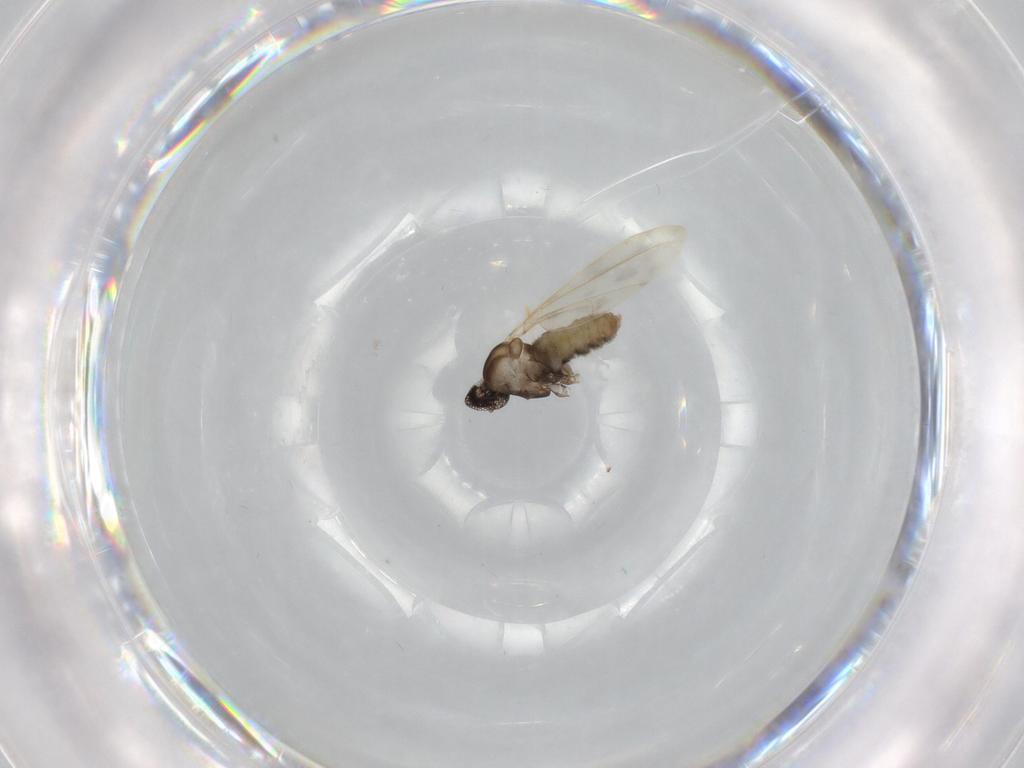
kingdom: Animalia
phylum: Arthropoda
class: Insecta
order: Diptera
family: Cecidomyiidae
